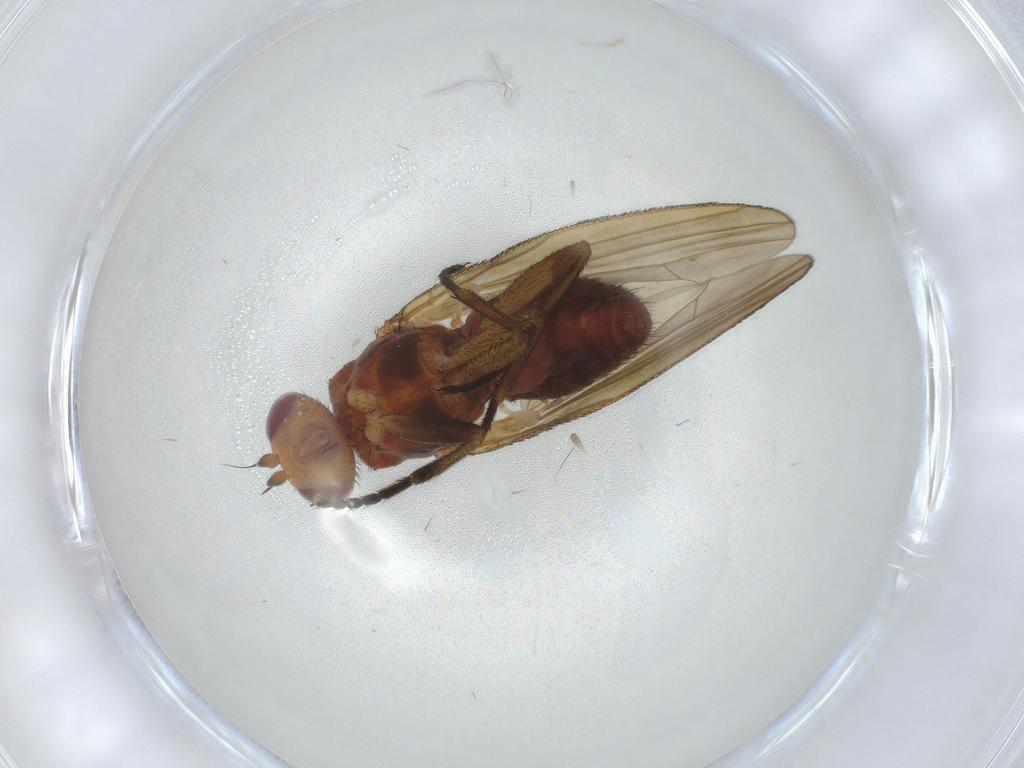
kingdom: Animalia
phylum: Arthropoda
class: Insecta
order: Diptera
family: Sciomyzidae
